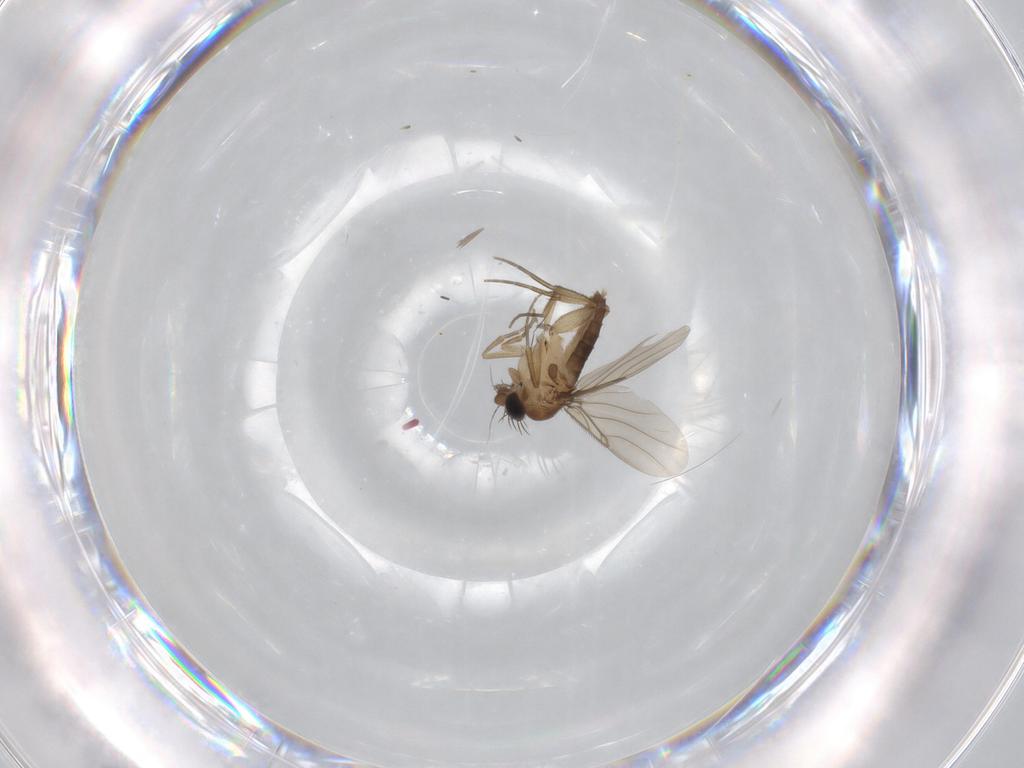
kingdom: Animalia
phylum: Arthropoda
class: Insecta
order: Diptera
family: Phoridae
